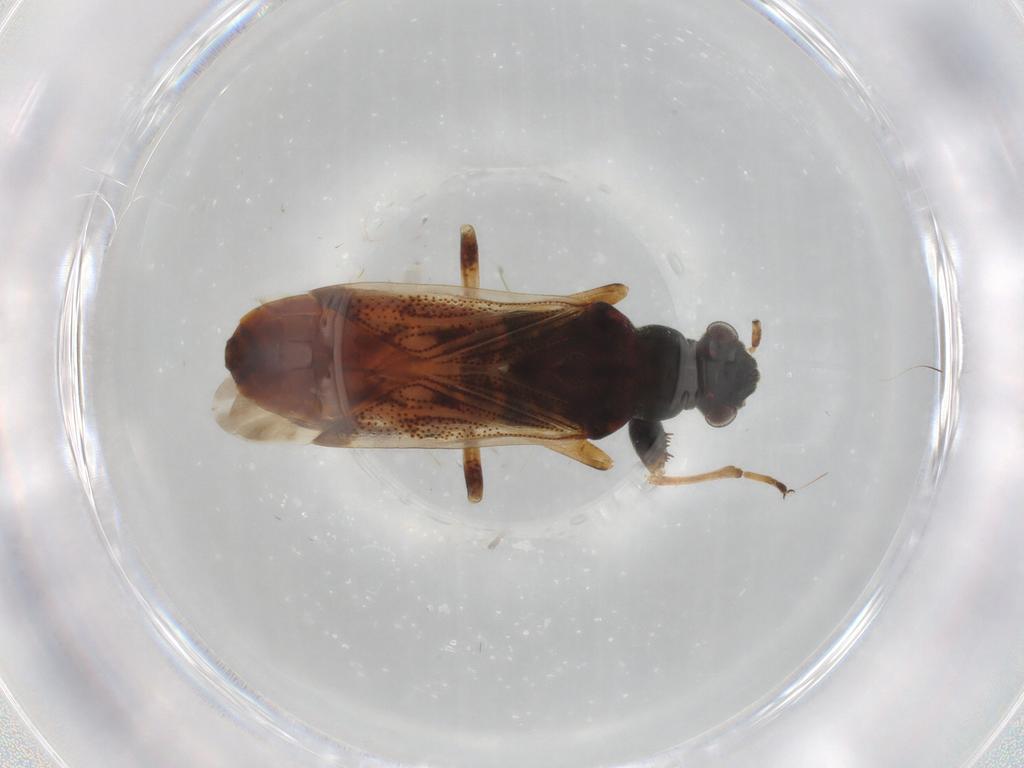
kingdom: Animalia
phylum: Arthropoda
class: Insecta
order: Hemiptera
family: Rhyparochromidae
